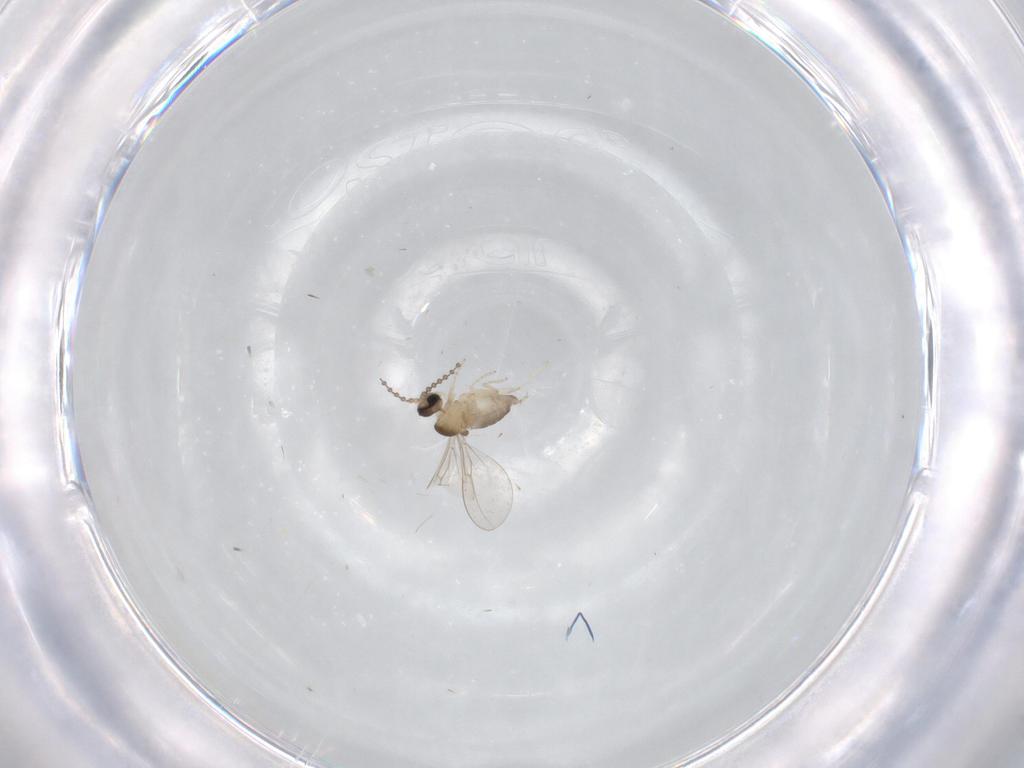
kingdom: Animalia
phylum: Arthropoda
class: Insecta
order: Diptera
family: Cecidomyiidae
